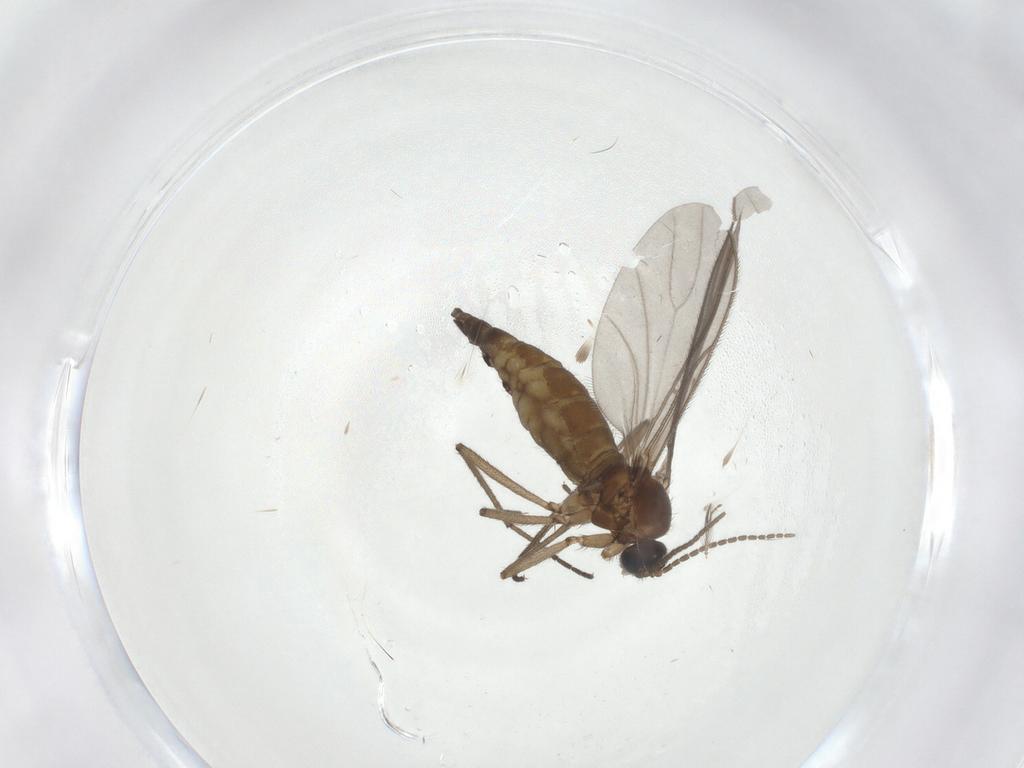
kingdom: Animalia
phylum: Arthropoda
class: Insecta
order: Diptera
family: Sciaridae
